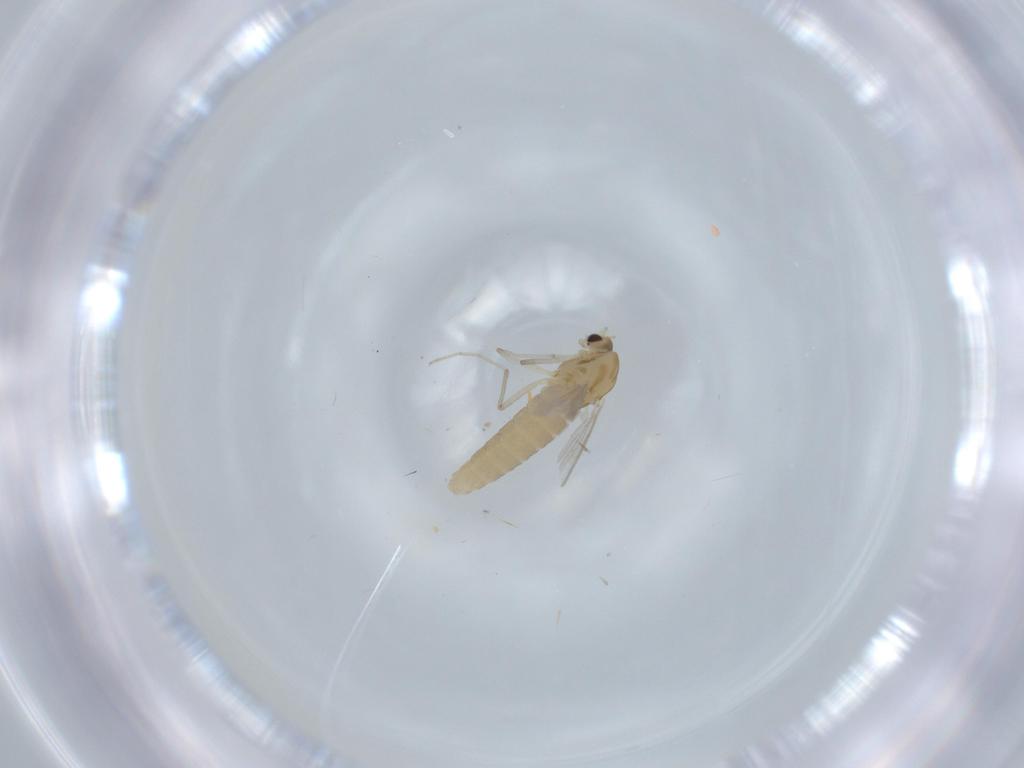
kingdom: Animalia
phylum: Arthropoda
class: Insecta
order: Diptera
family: Chironomidae
